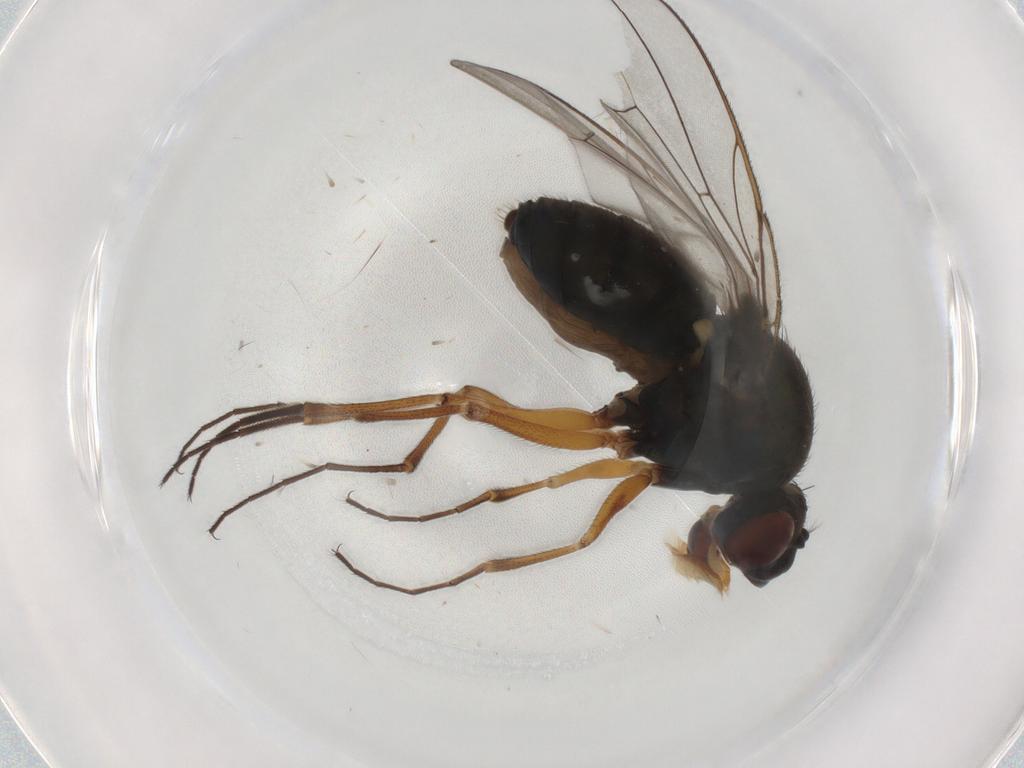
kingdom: Animalia
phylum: Arthropoda
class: Insecta
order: Diptera
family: Ephydridae
